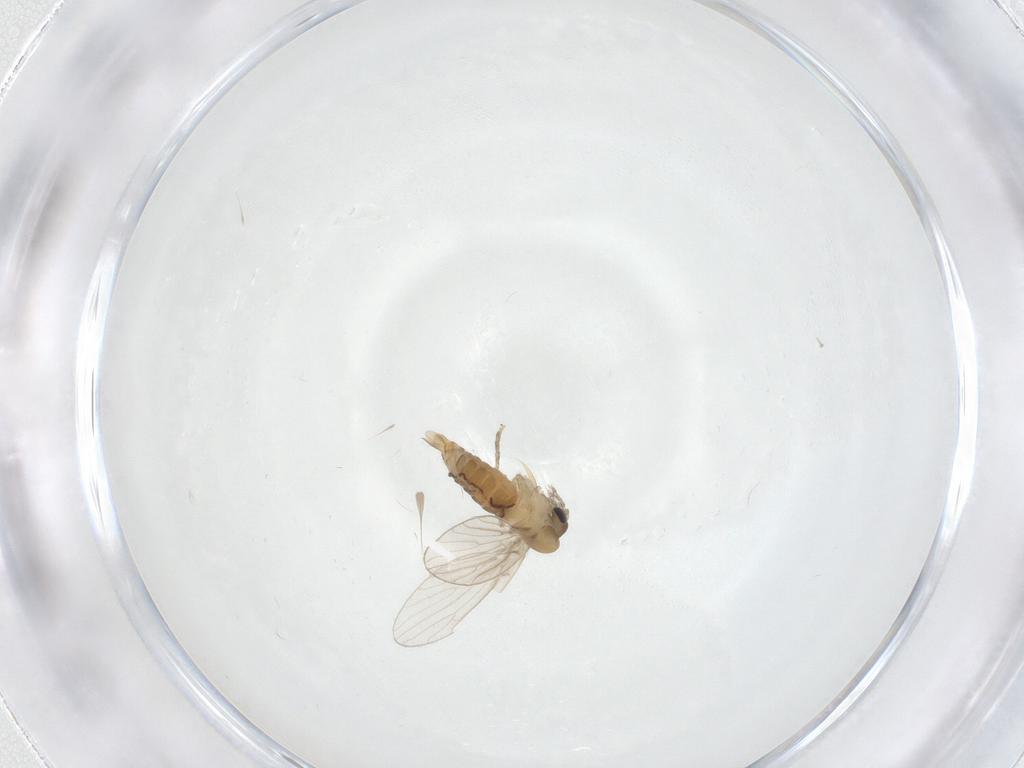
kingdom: Animalia
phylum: Arthropoda
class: Insecta
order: Diptera
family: Psychodidae
